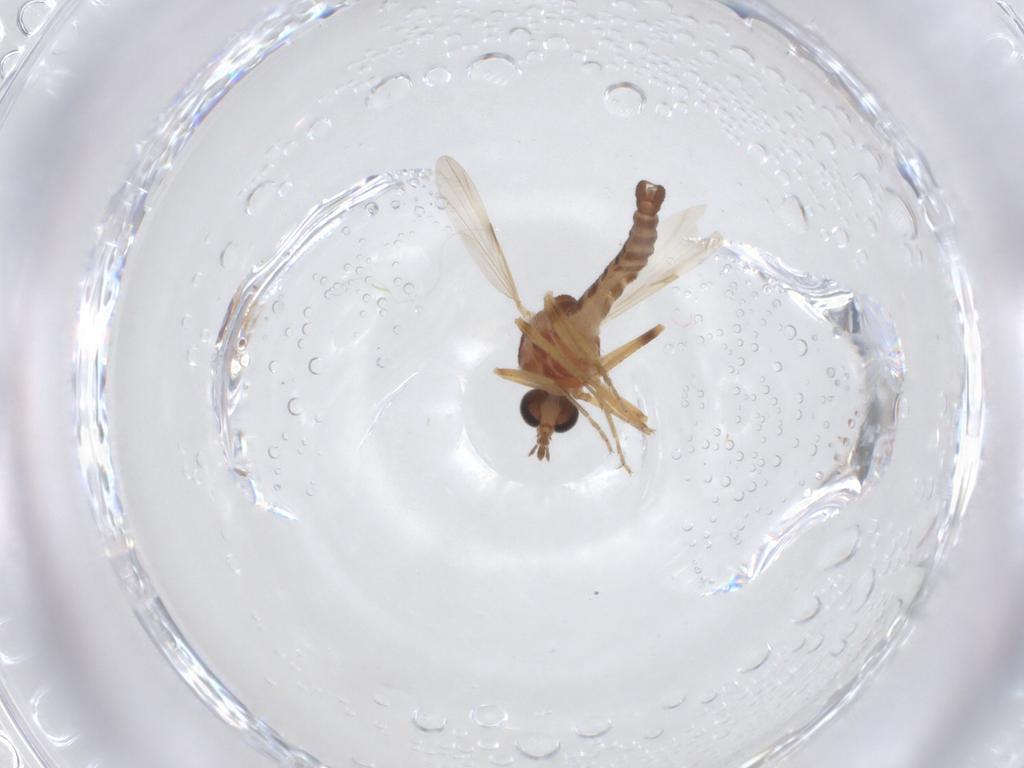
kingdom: Animalia
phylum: Arthropoda
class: Insecta
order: Diptera
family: Ceratopogonidae
